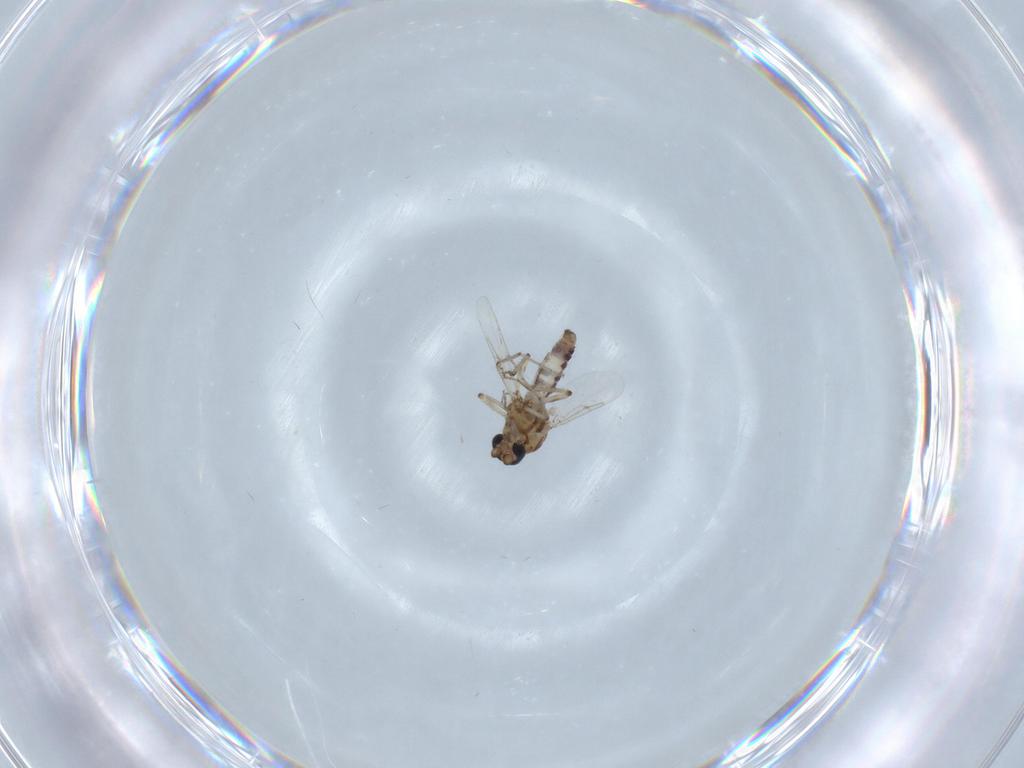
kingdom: Animalia
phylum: Arthropoda
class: Insecta
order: Diptera
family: Ceratopogonidae
